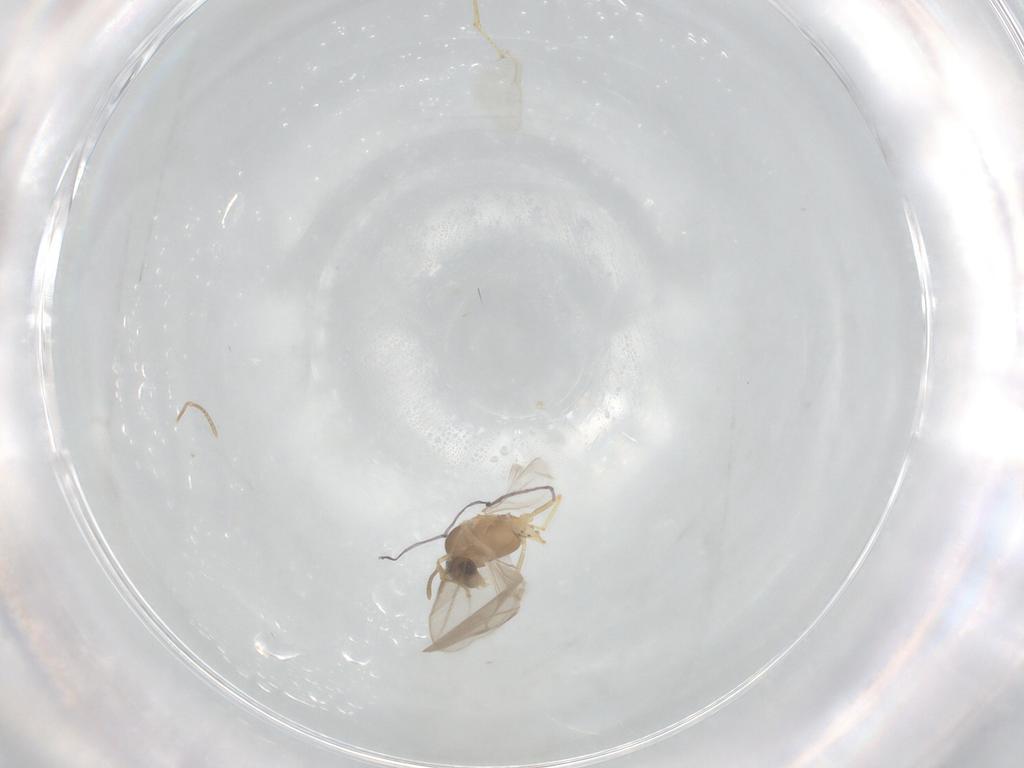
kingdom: Animalia
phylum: Arthropoda
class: Insecta
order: Hymenoptera
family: Formicidae
